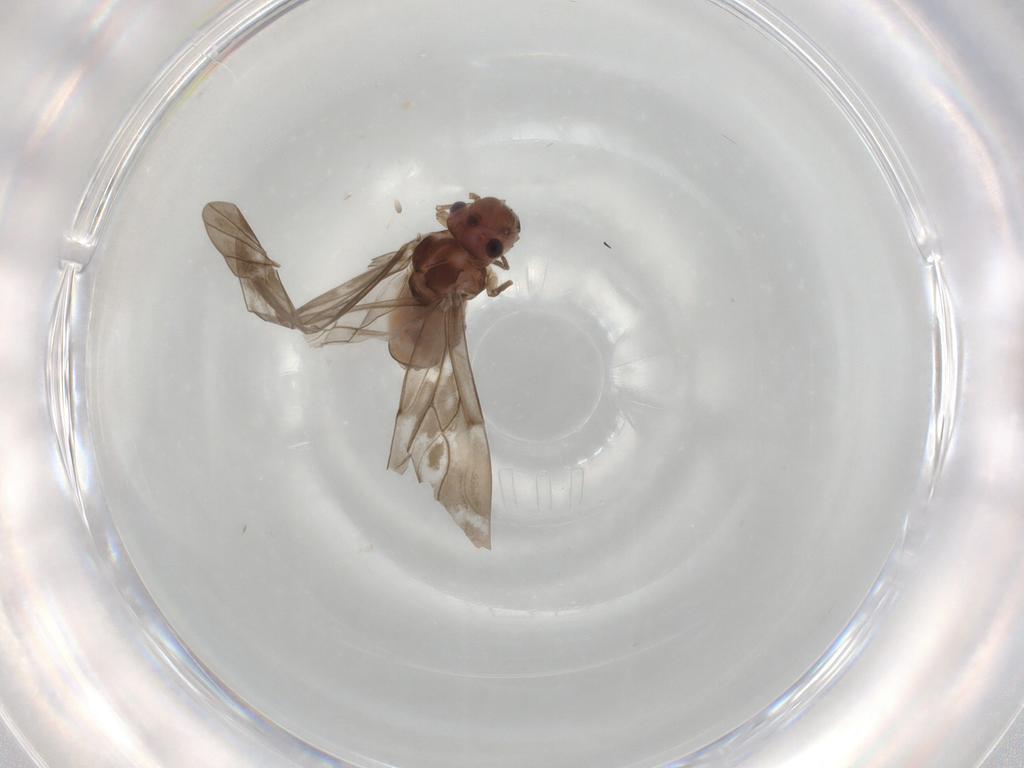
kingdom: Animalia
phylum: Arthropoda
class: Insecta
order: Psocodea
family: Peripsocidae
